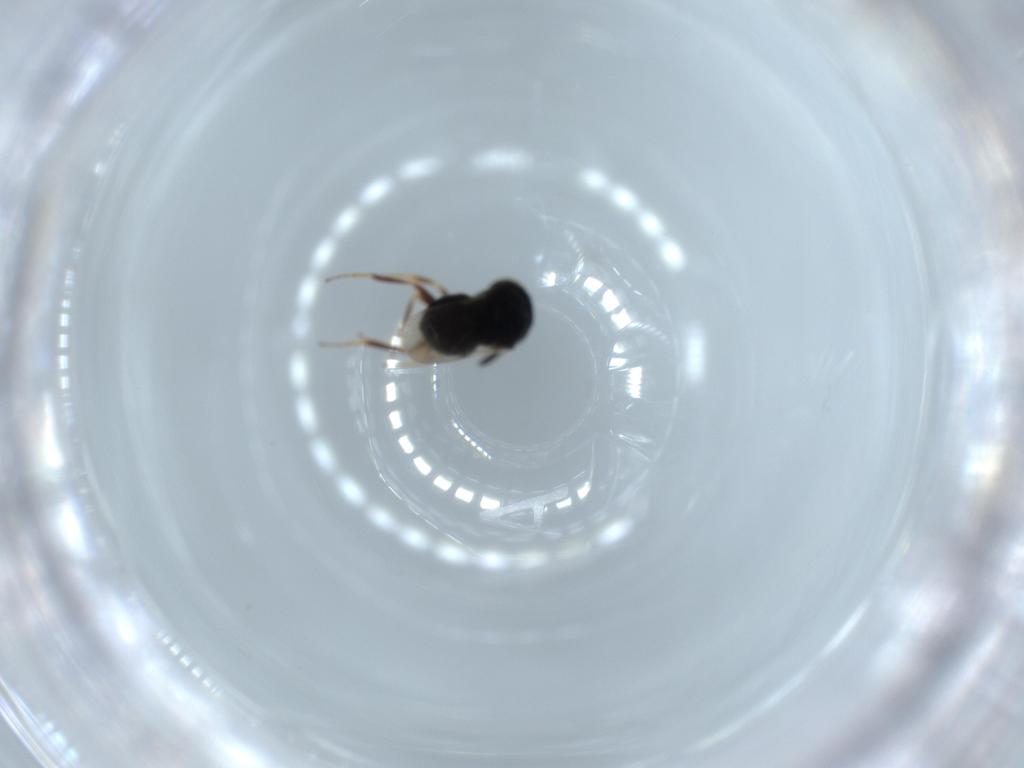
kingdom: Animalia
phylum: Arthropoda
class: Insecta
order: Hymenoptera
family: Scelionidae
